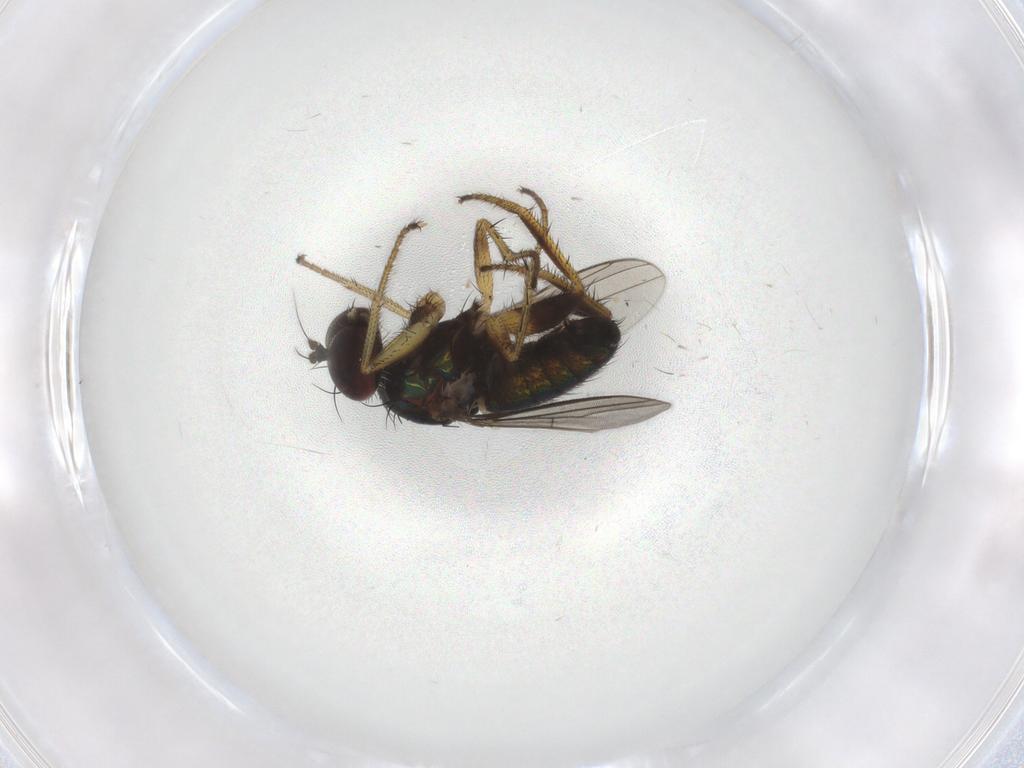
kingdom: Animalia
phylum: Arthropoda
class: Insecta
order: Diptera
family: Dolichopodidae
